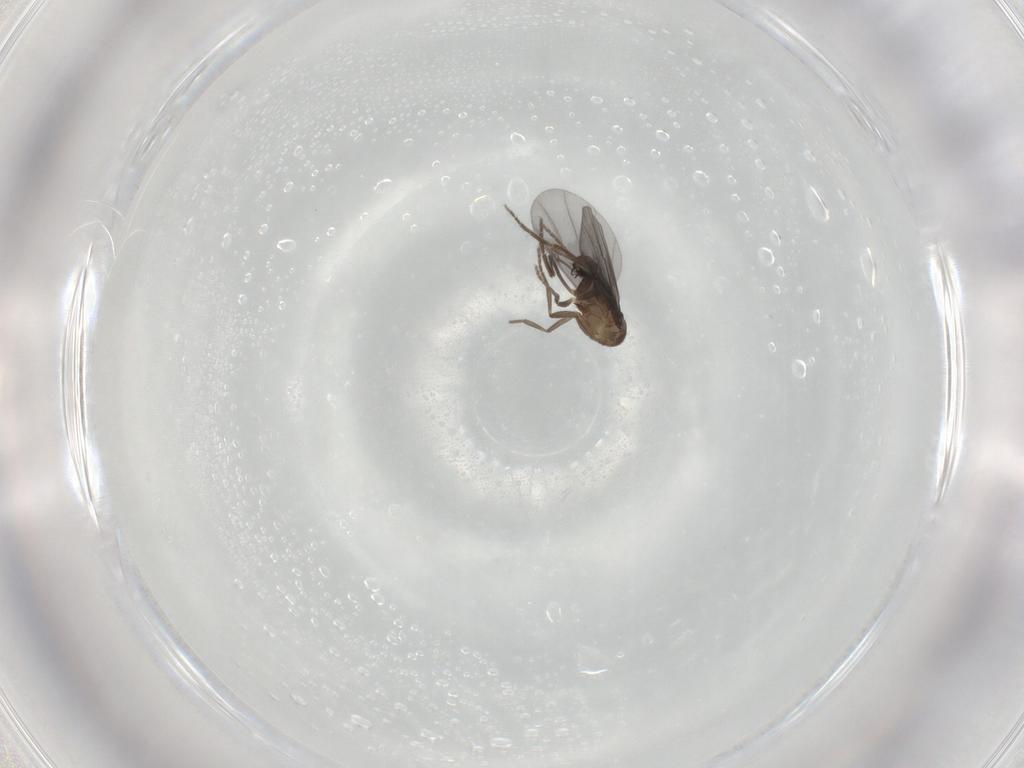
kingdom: Animalia
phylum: Arthropoda
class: Insecta
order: Diptera
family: Phoridae
